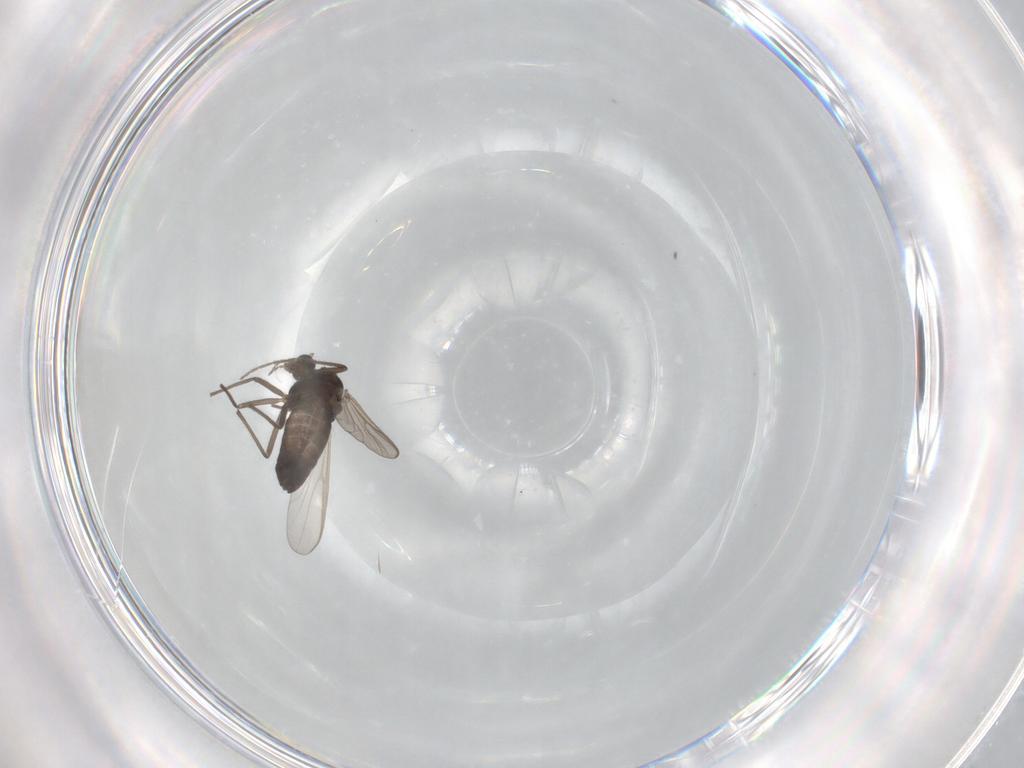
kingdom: Animalia
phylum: Arthropoda
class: Insecta
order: Diptera
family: Chironomidae
